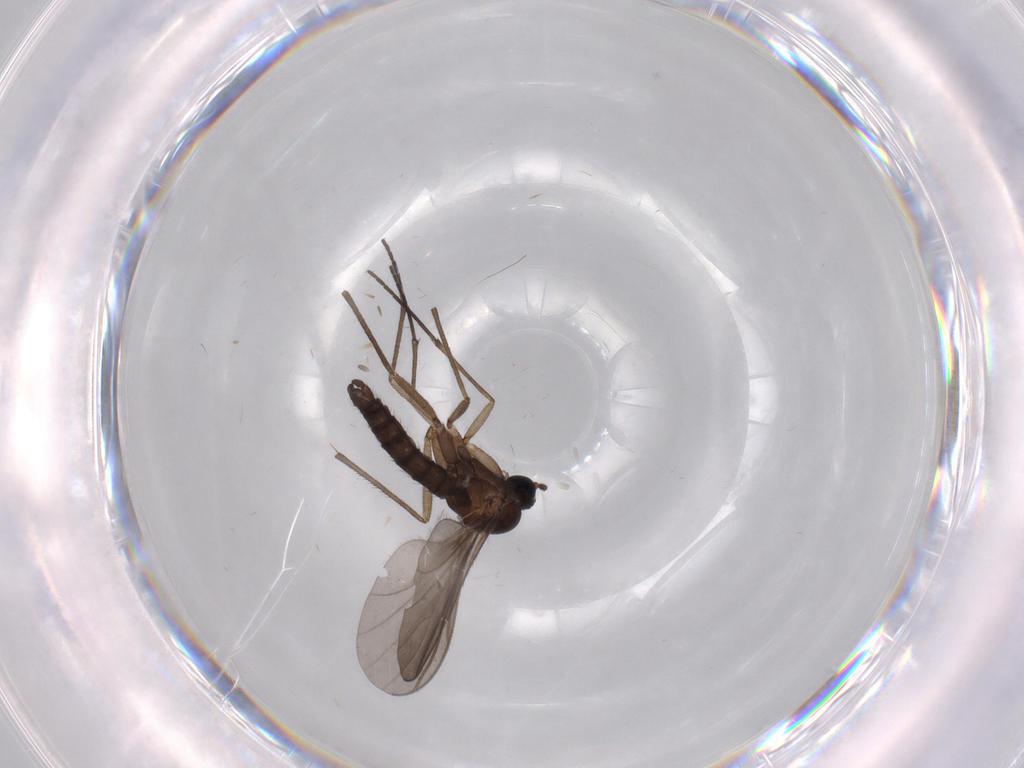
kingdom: Animalia
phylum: Arthropoda
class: Insecta
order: Diptera
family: Sciaridae
